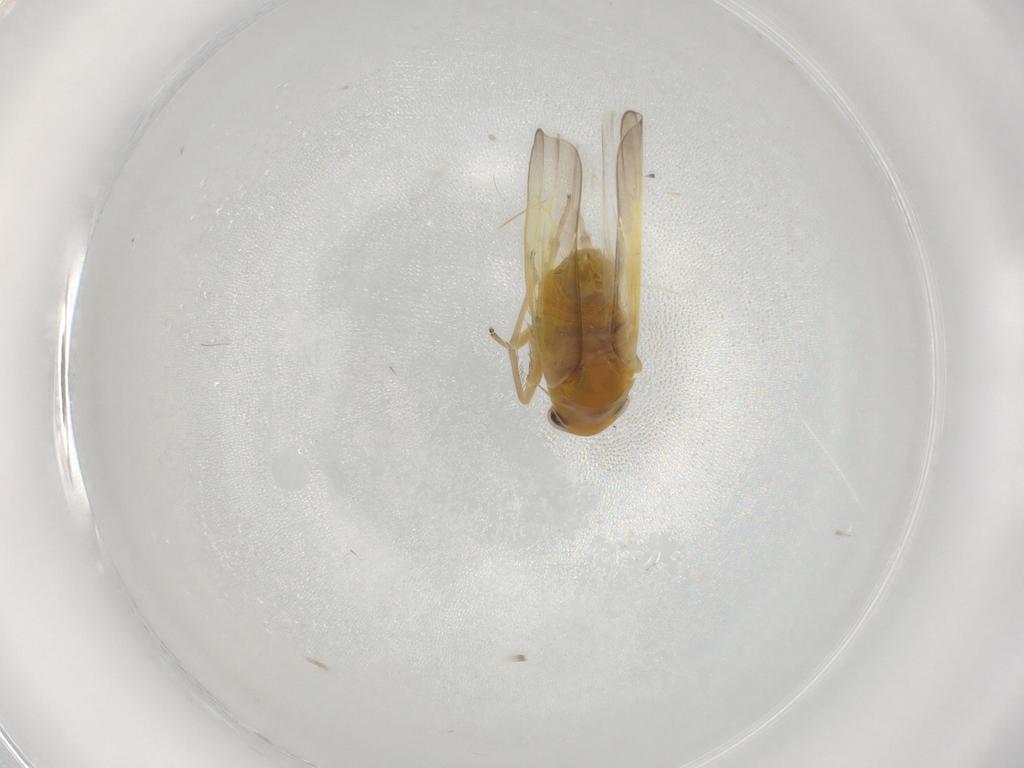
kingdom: Animalia
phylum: Arthropoda
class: Insecta
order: Hemiptera
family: Cicadellidae
